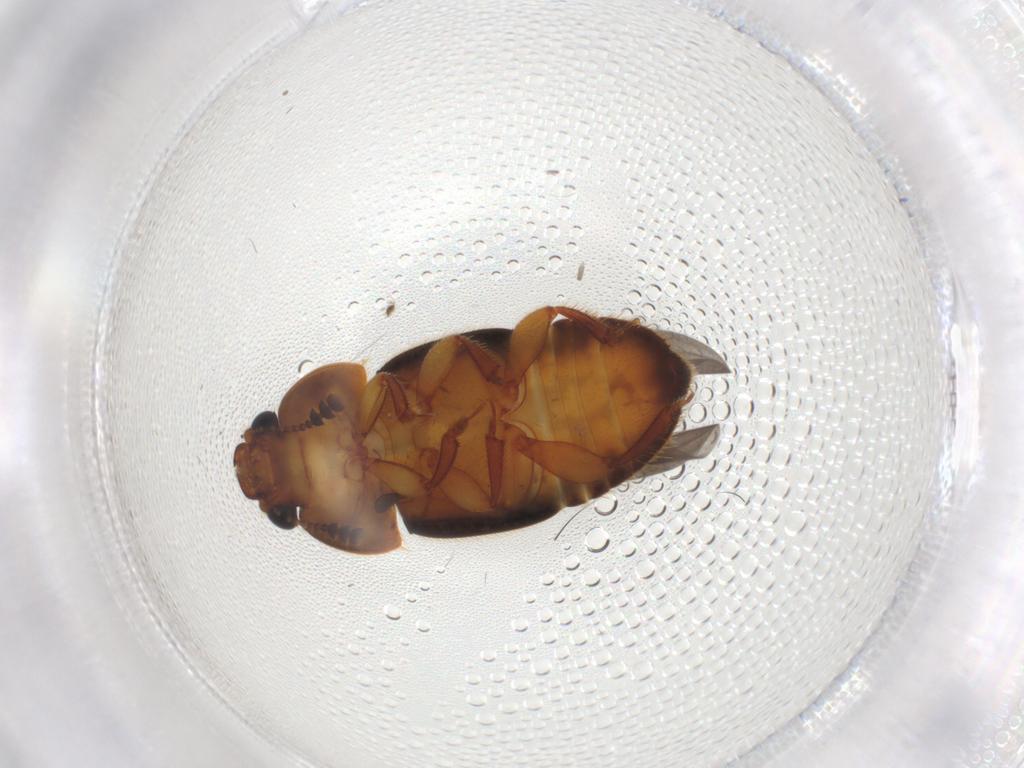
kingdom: Animalia
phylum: Arthropoda
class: Insecta
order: Coleoptera
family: Nitidulidae
